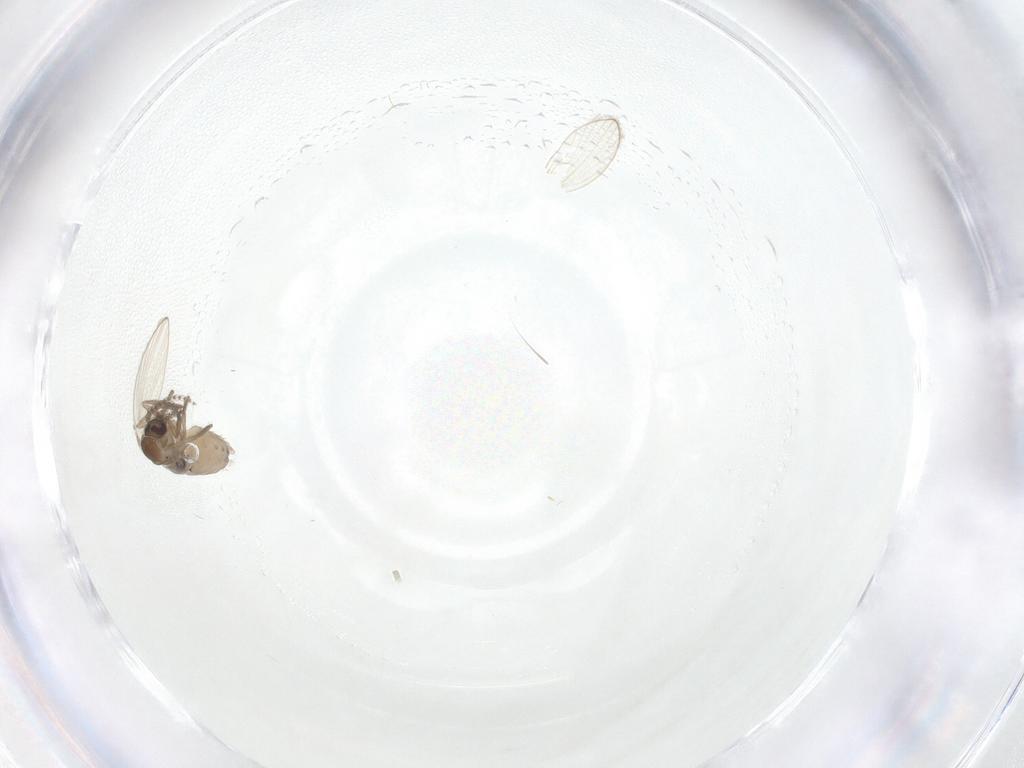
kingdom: Animalia
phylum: Arthropoda
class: Insecta
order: Diptera
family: Psychodidae
